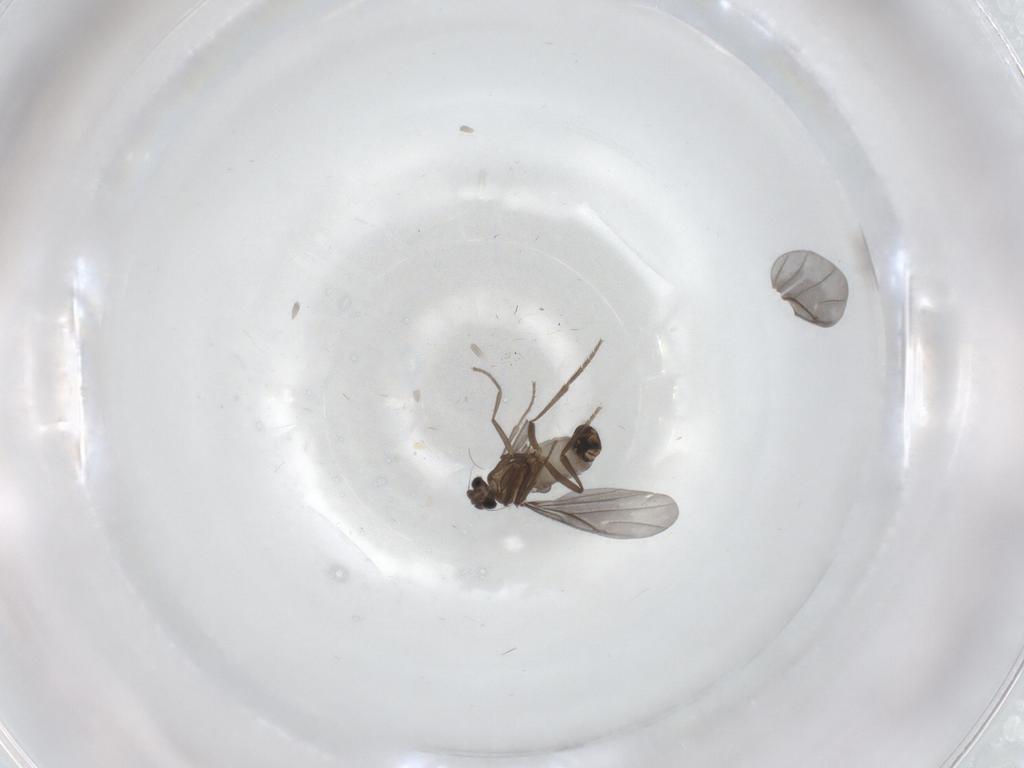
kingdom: Animalia
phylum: Arthropoda
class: Insecta
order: Diptera
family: Phoridae
